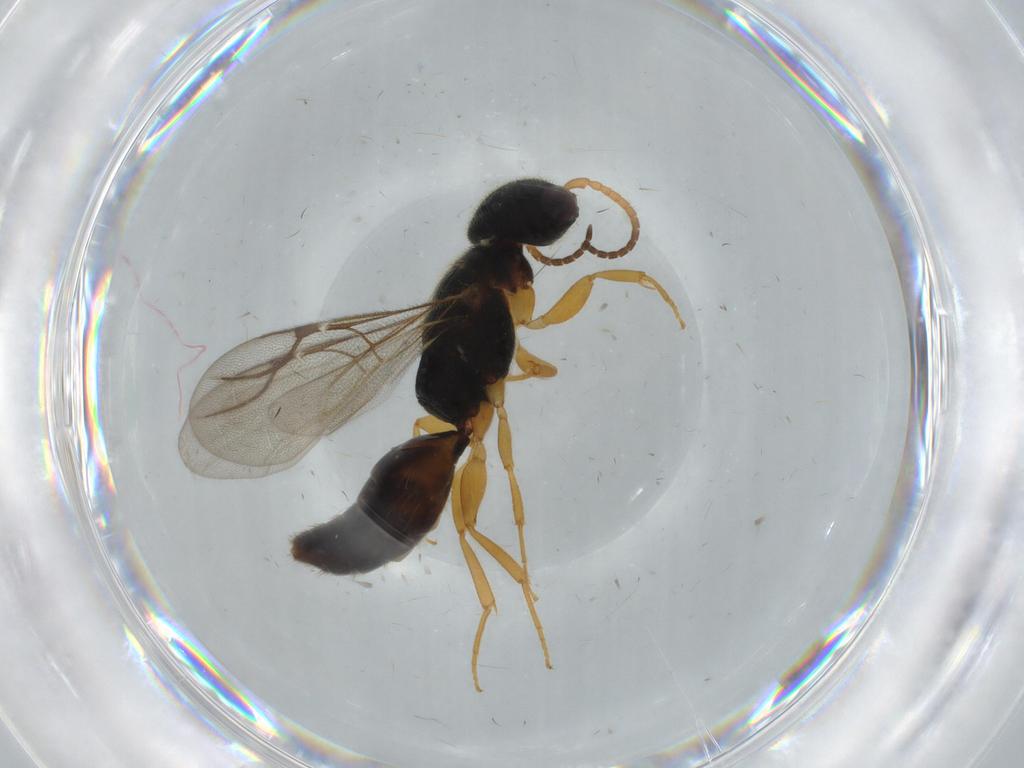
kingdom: Animalia
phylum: Arthropoda
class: Insecta
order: Hymenoptera
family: Bethylidae
